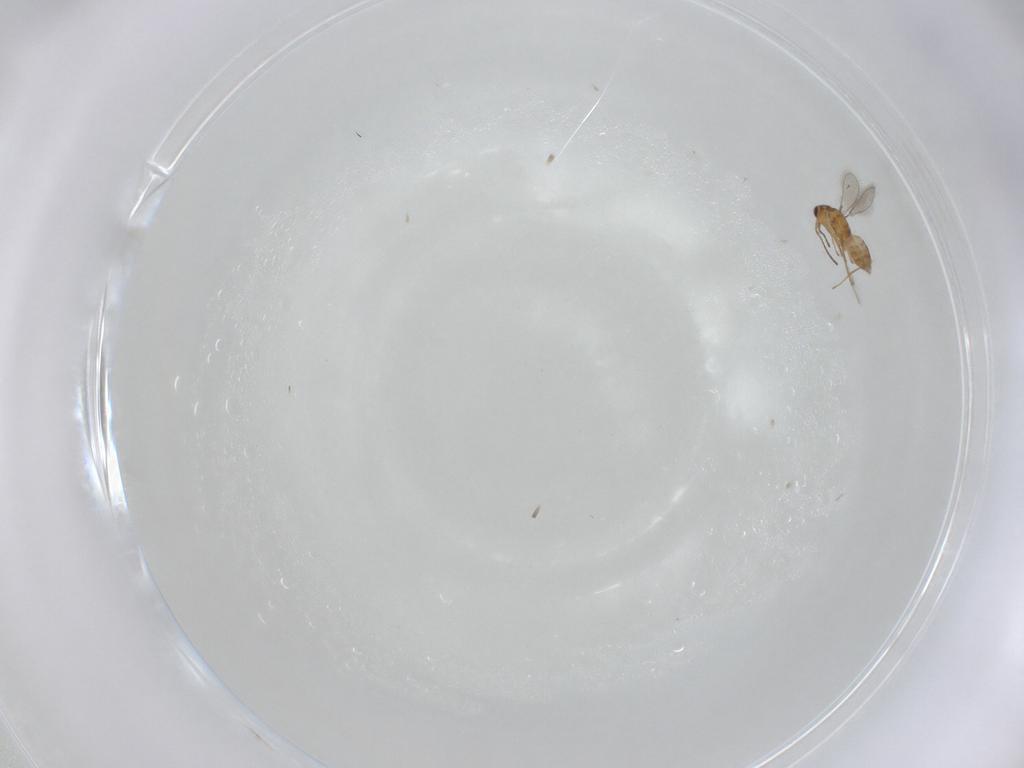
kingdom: Animalia
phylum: Arthropoda
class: Insecta
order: Hymenoptera
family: Mymaridae
